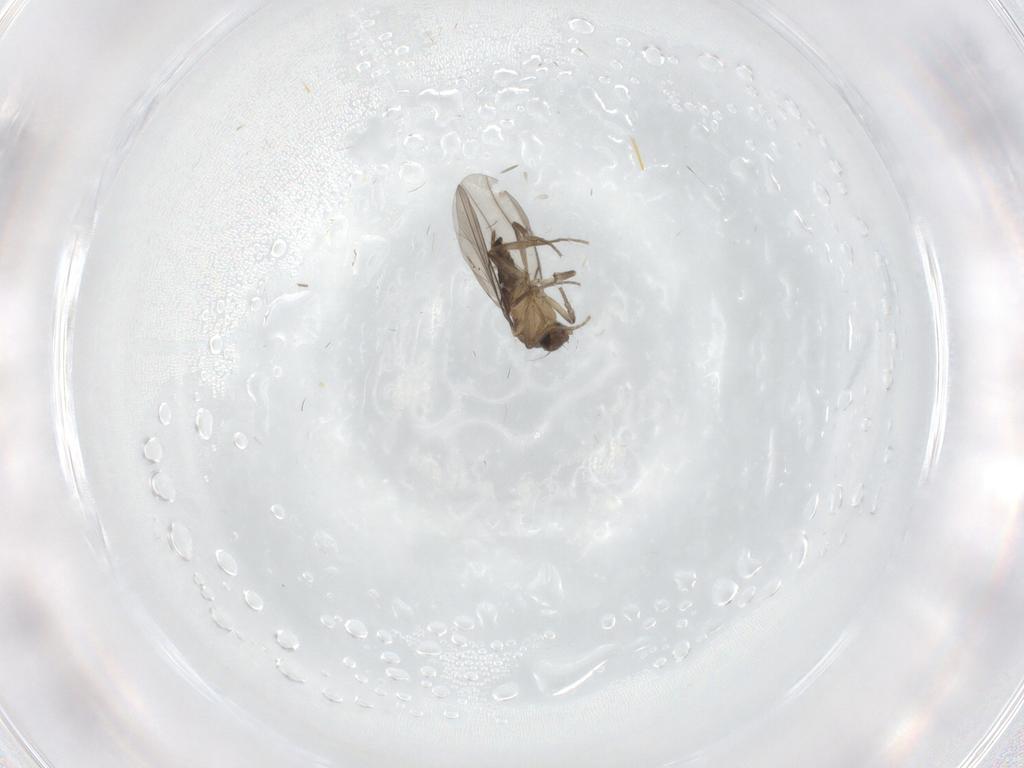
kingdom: Animalia
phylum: Arthropoda
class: Insecta
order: Diptera
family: Phoridae
